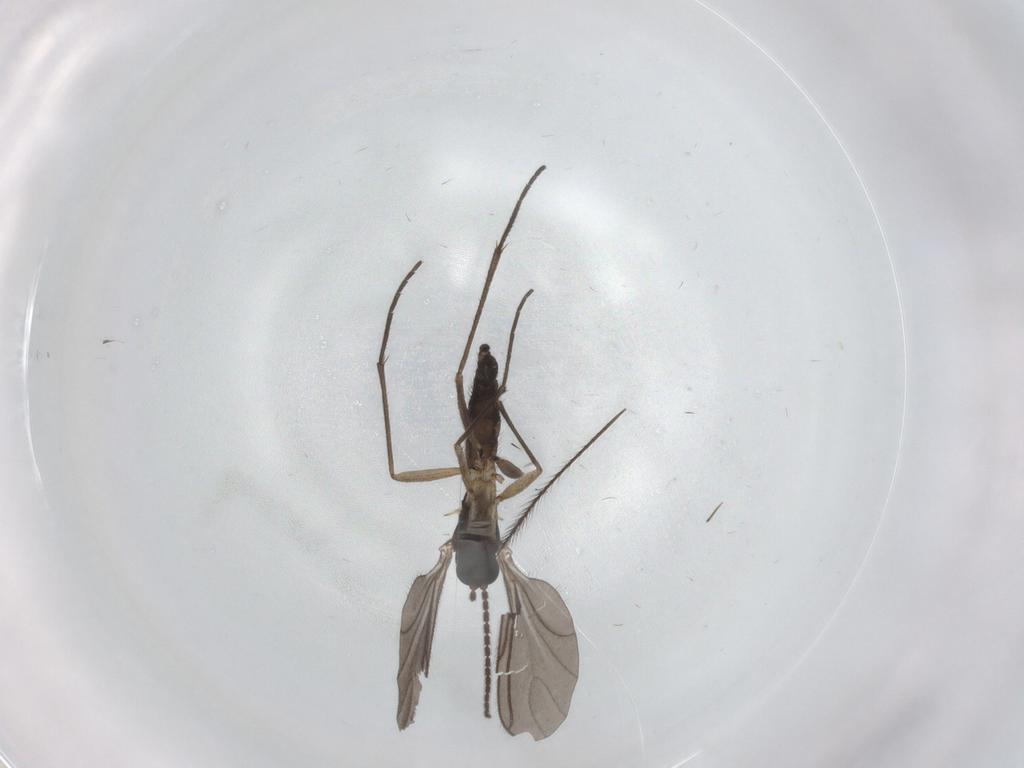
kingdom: Animalia
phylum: Arthropoda
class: Insecta
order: Diptera
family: Sciaridae
